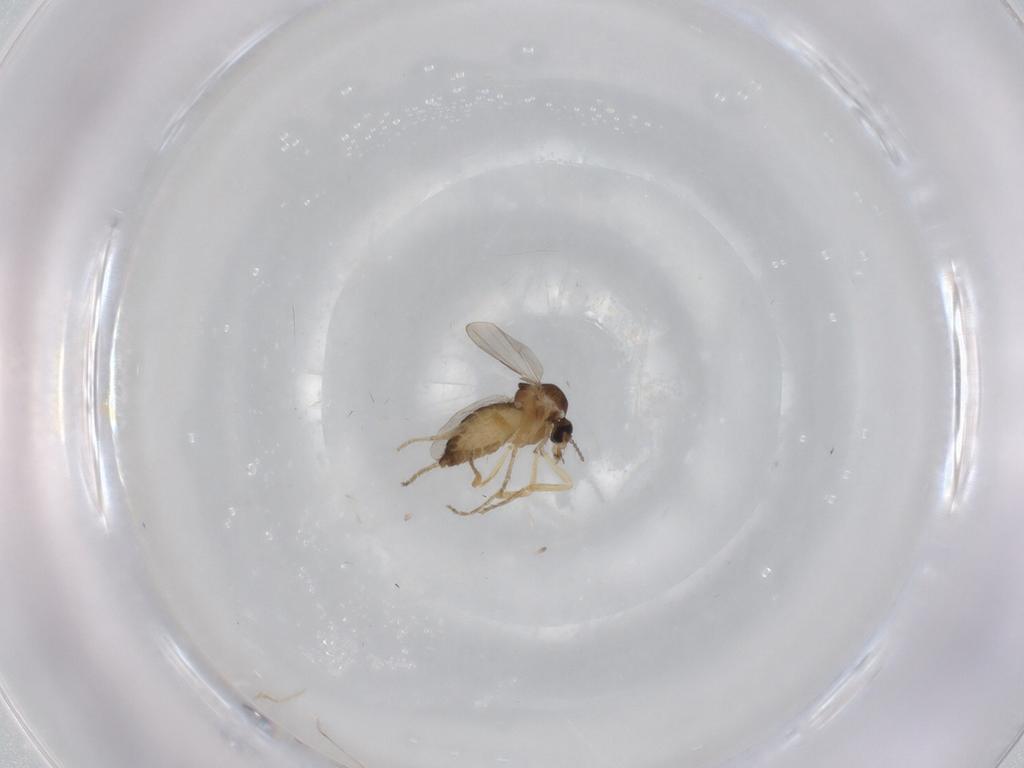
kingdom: Animalia
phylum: Arthropoda
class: Insecta
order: Diptera
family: Ceratopogonidae
